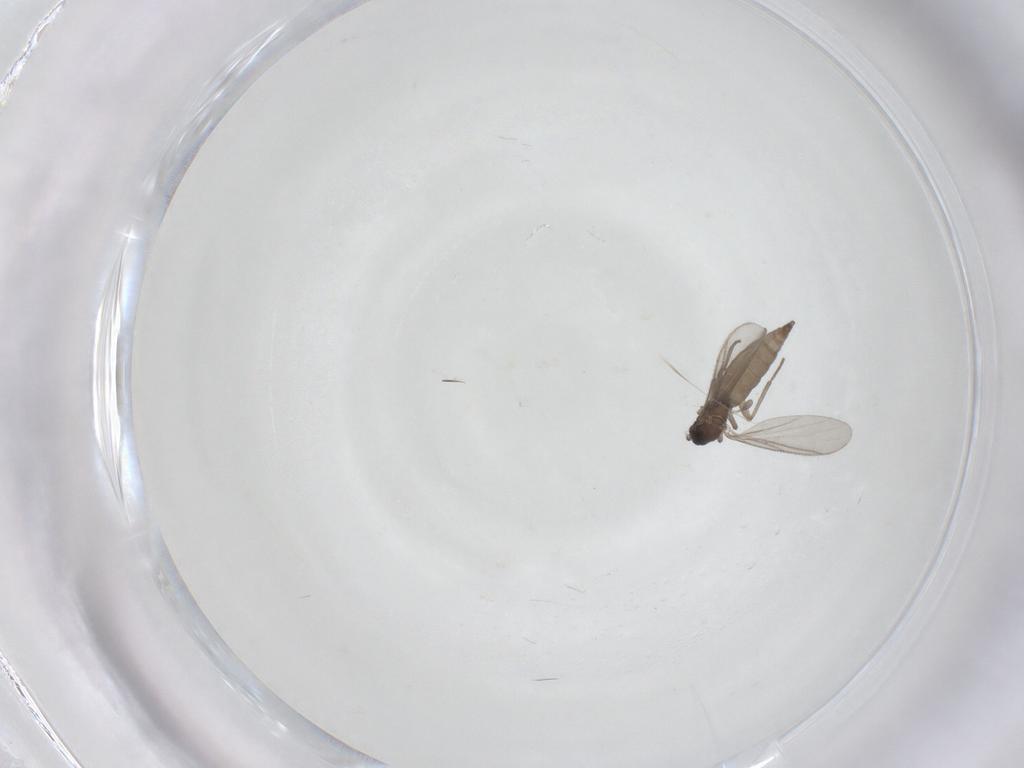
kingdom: Animalia
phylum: Arthropoda
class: Insecta
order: Diptera
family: Sciaridae
